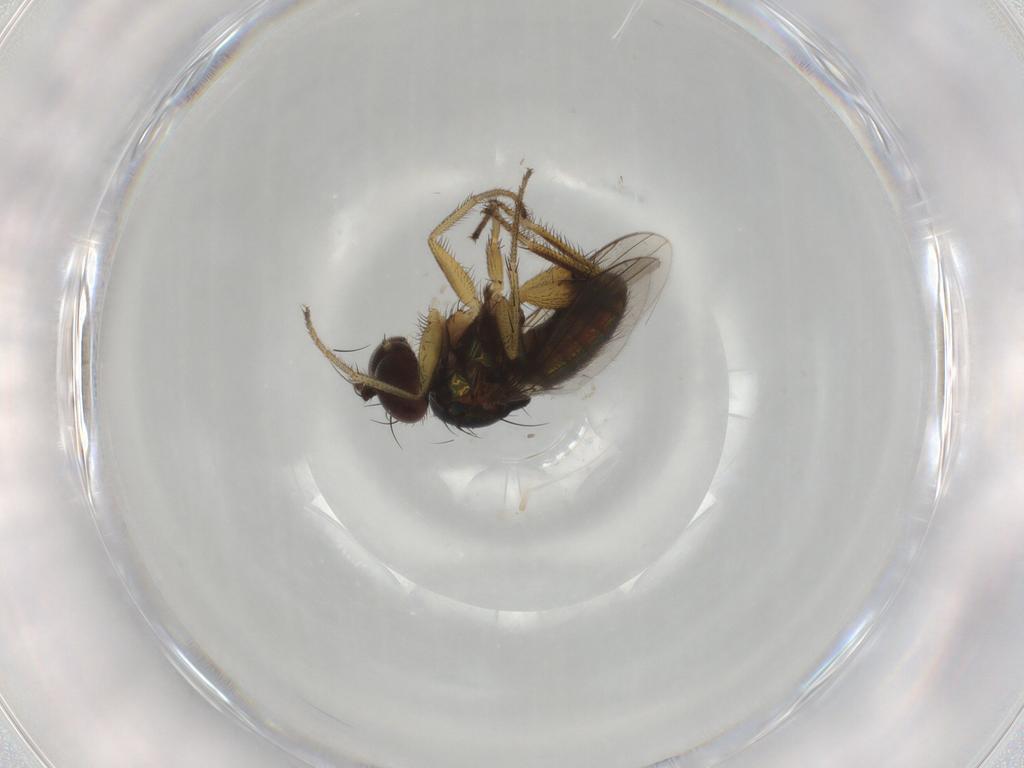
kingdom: Animalia
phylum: Arthropoda
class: Insecta
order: Diptera
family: Dolichopodidae
